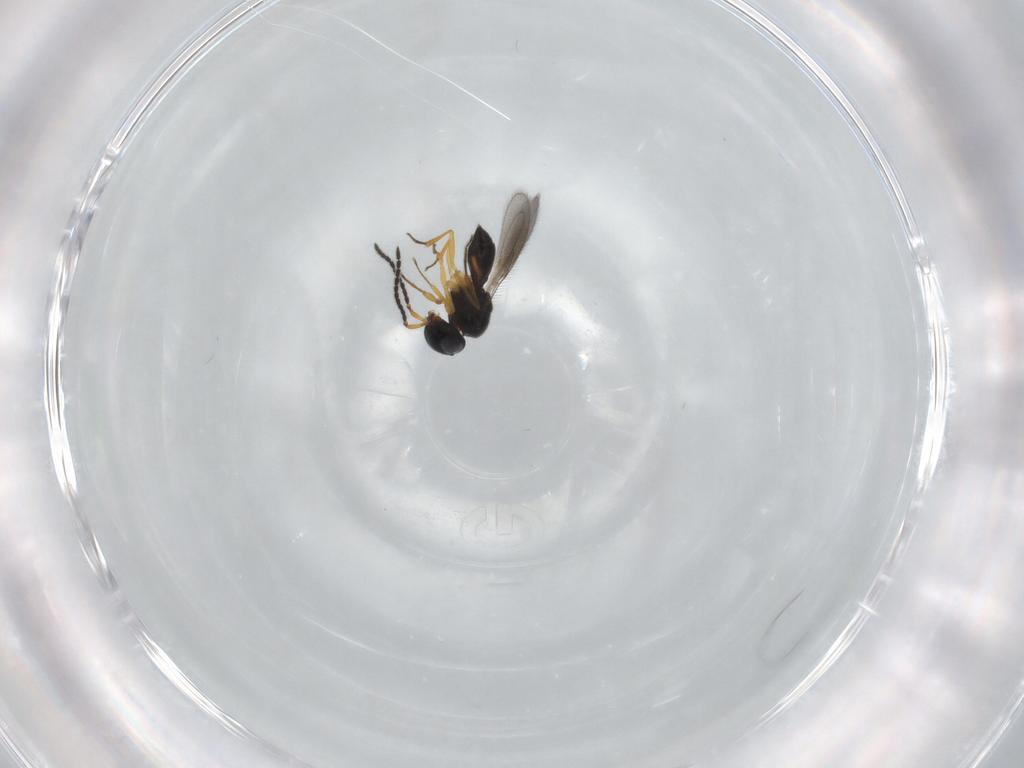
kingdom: Animalia
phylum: Arthropoda
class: Insecta
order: Hymenoptera
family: Scelionidae
